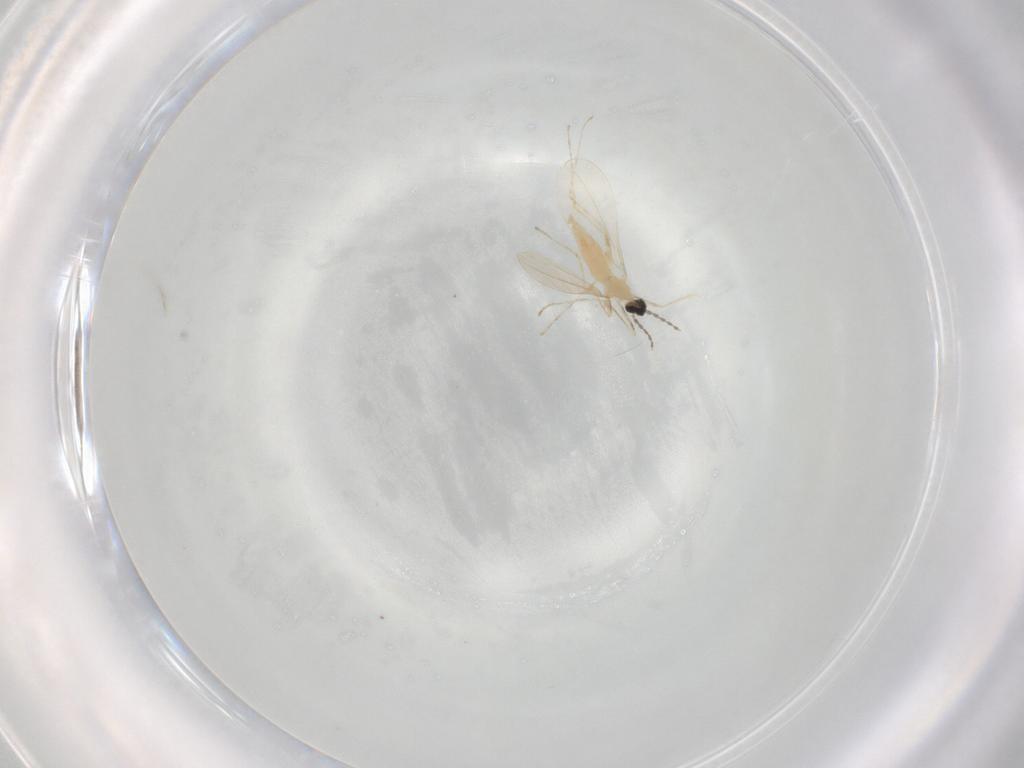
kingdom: Animalia
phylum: Arthropoda
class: Insecta
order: Diptera
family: Cecidomyiidae
